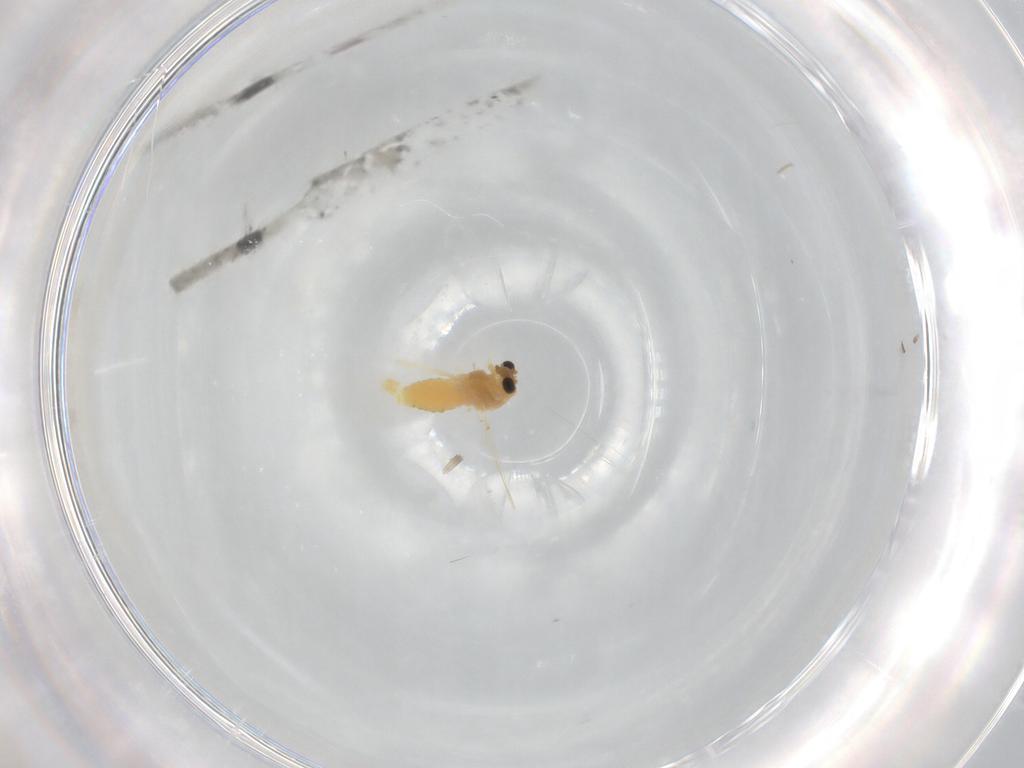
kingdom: Animalia
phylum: Arthropoda
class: Insecta
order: Diptera
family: Chironomidae
